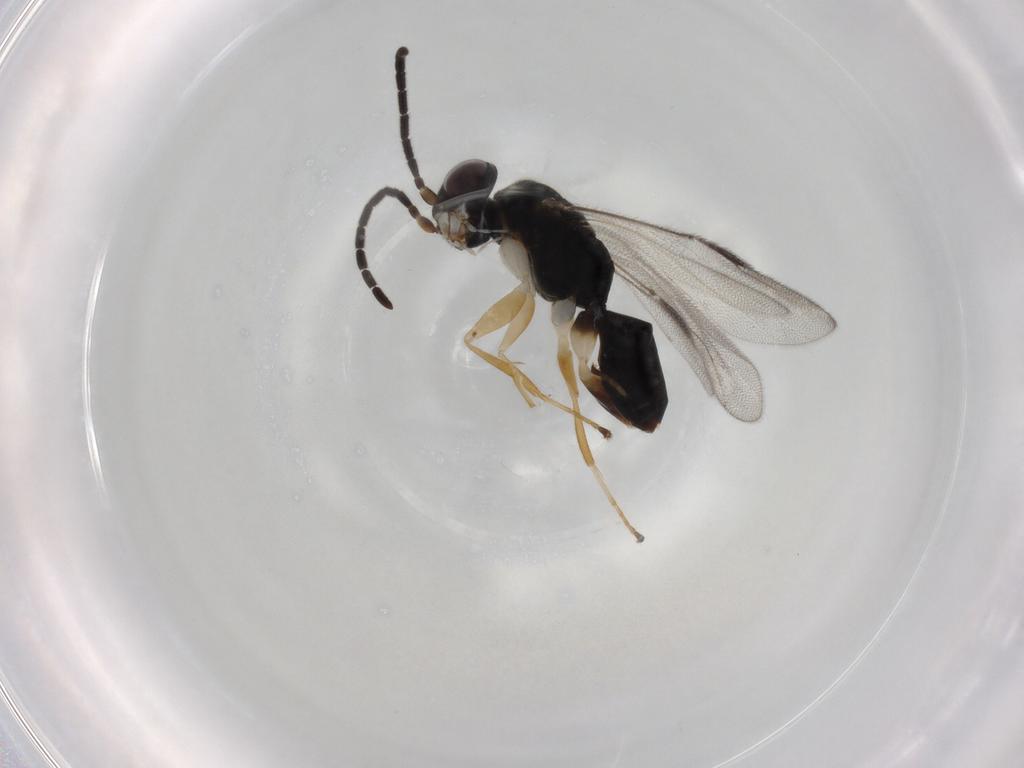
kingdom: Animalia
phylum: Arthropoda
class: Insecta
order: Hymenoptera
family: Dryinidae
